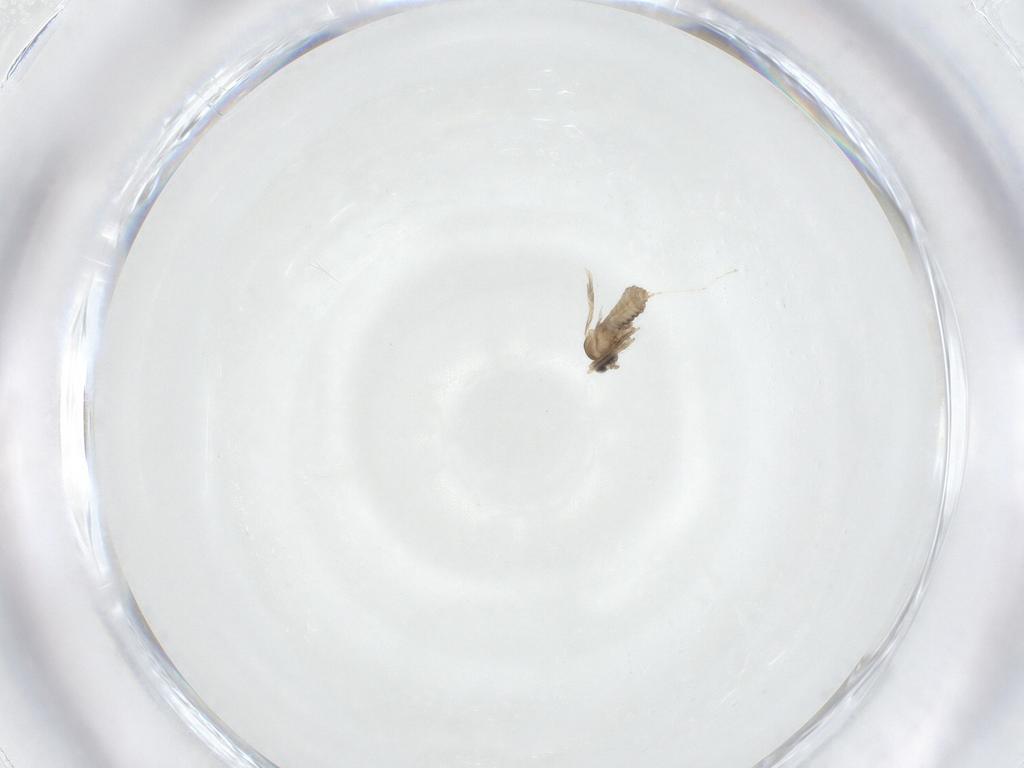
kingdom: Animalia
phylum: Arthropoda
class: Insecta
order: Diptera
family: Cecidomyiidae
